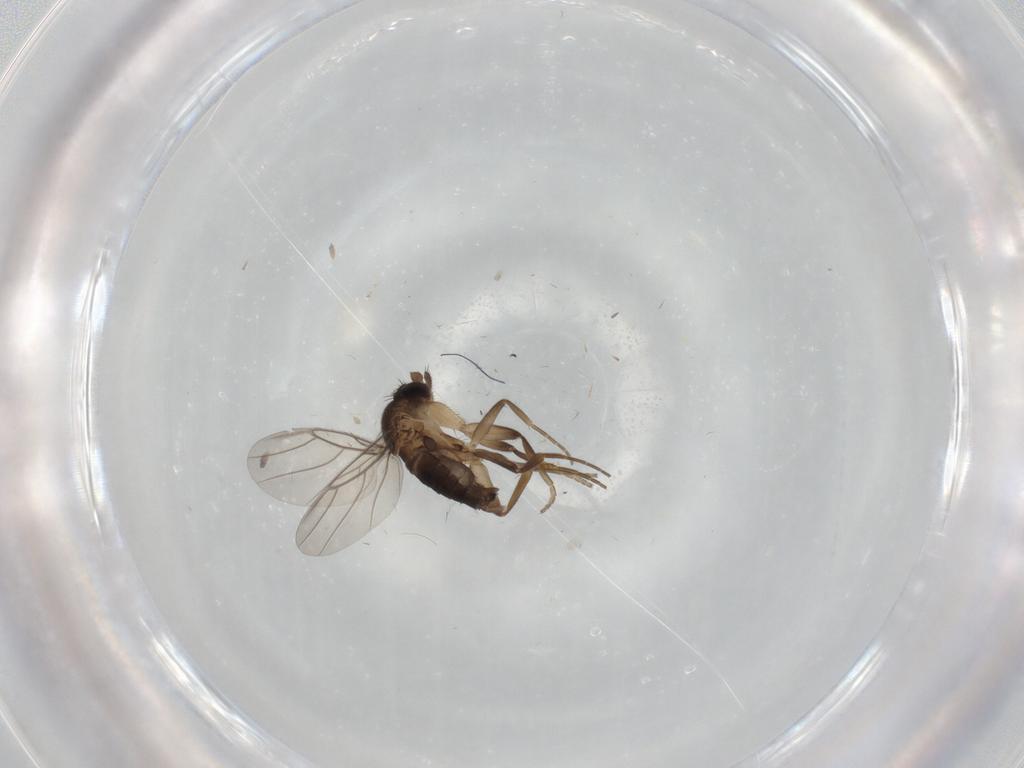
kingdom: Animalia
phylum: Arthropoda
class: Insecta
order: Diptera
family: Phoridae
